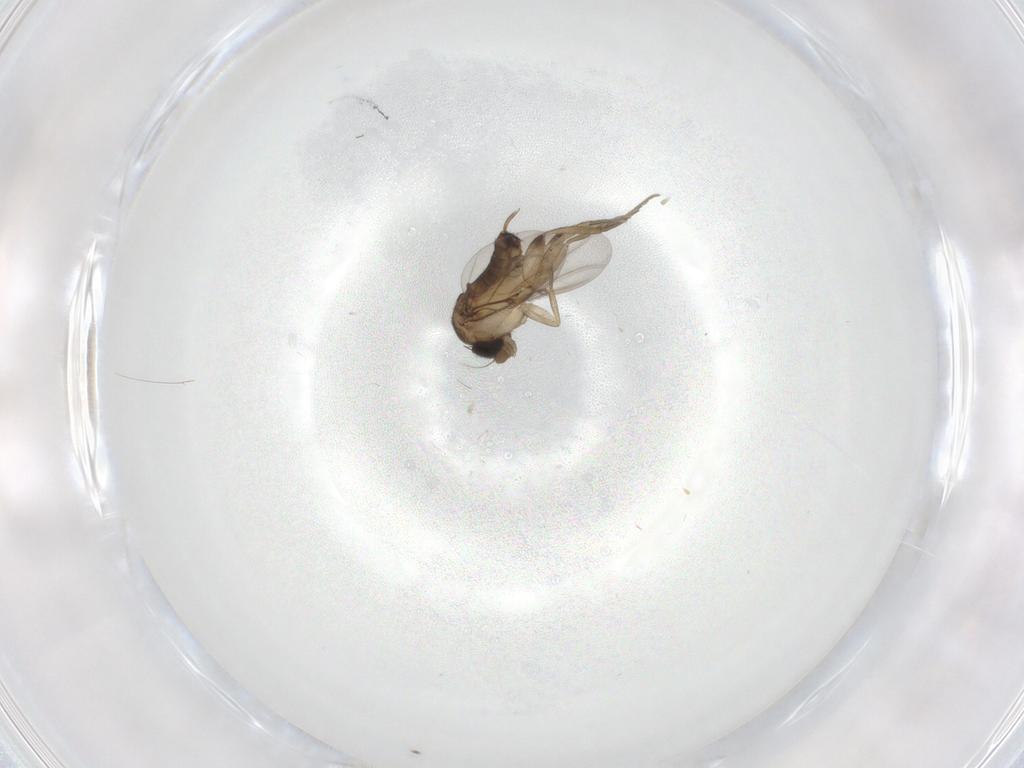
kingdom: Animalia
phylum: Arthropoda
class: Insecta
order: Diptera
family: Phoridae
